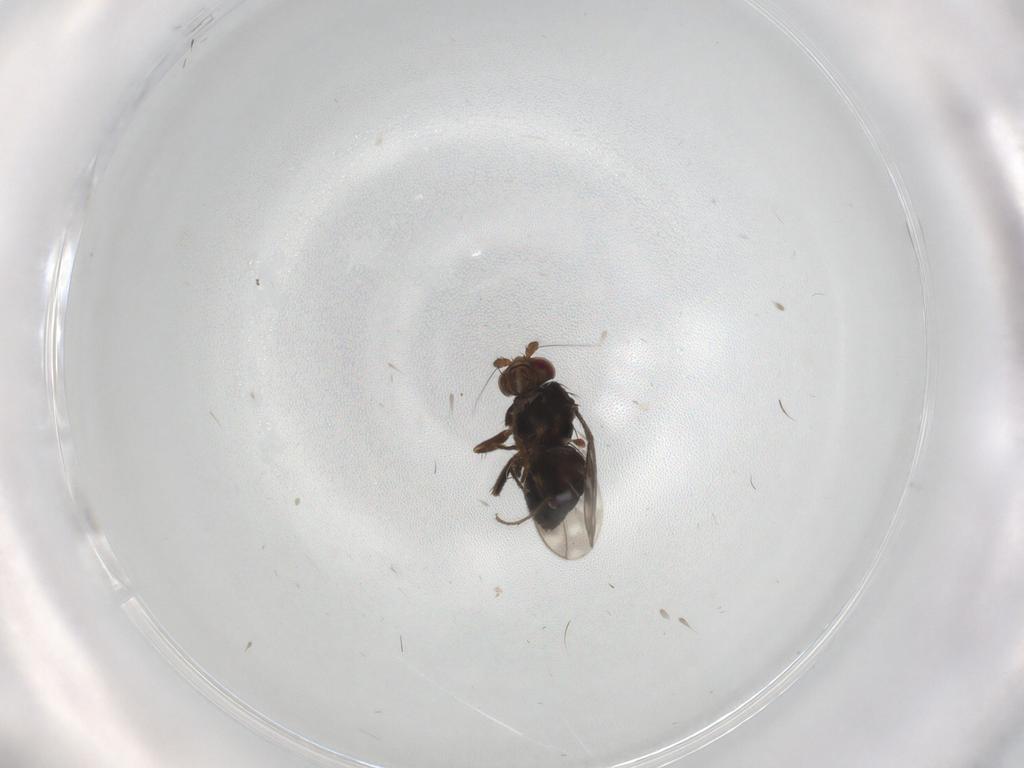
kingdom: Animalia
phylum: Arthropoda
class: Insecta
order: Diptera
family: Sphaeroceridae
